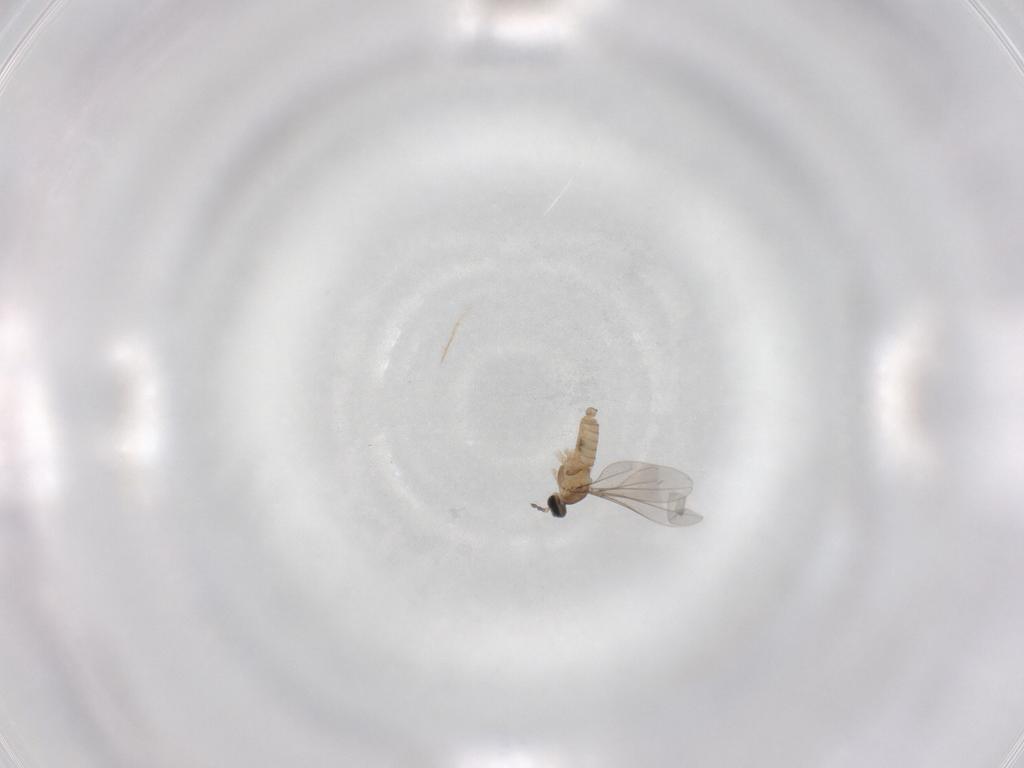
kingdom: Animalia
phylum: Arthropoda
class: Insecta
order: Diptera
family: Cecidomyiidae
